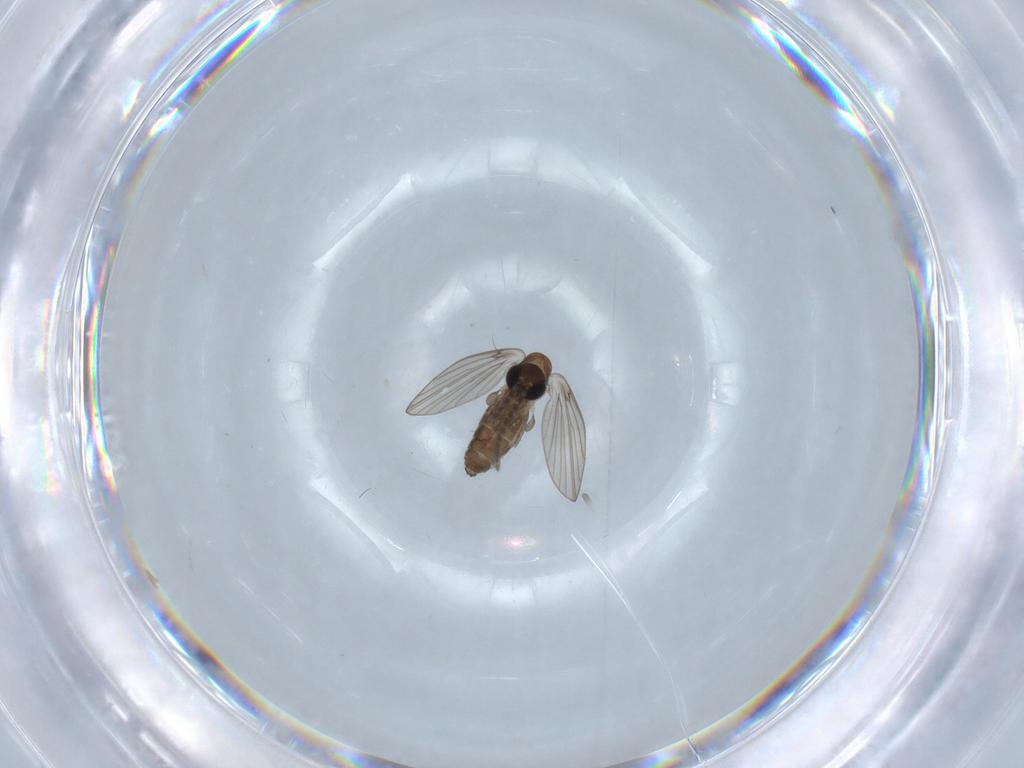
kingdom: Animalia
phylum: Arthropoda
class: Insecta
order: Diptera
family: Psychodidae
